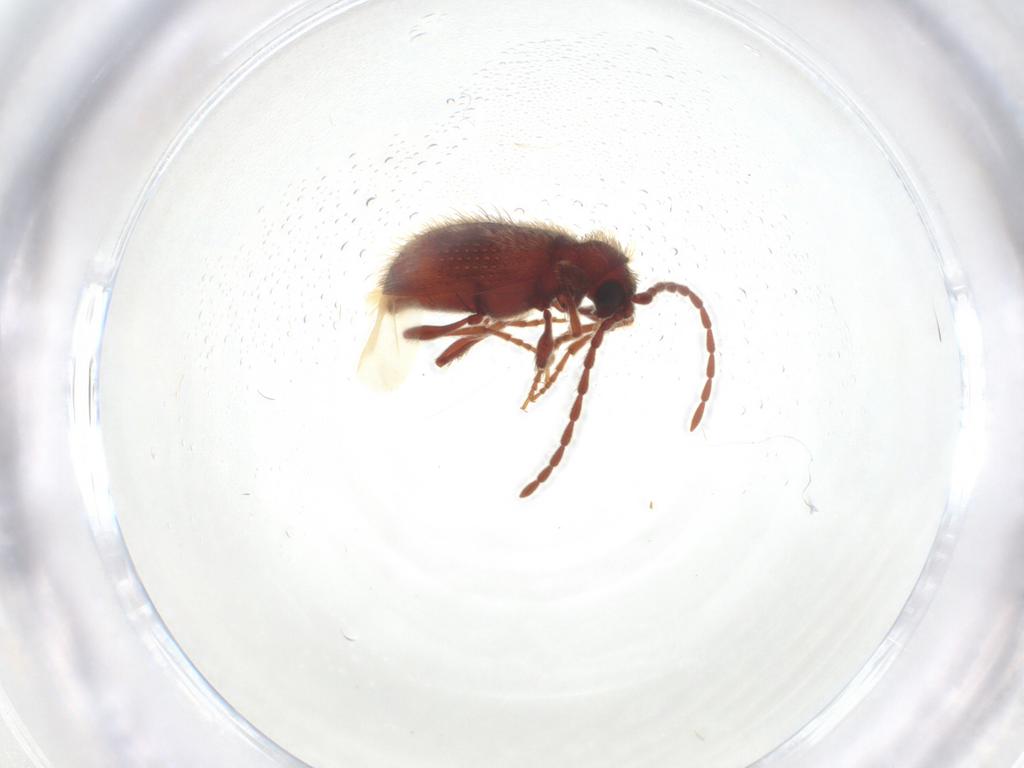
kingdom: Animalia
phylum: Arthropoda
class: Insecta
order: Coleoptera
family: Ptinidae
